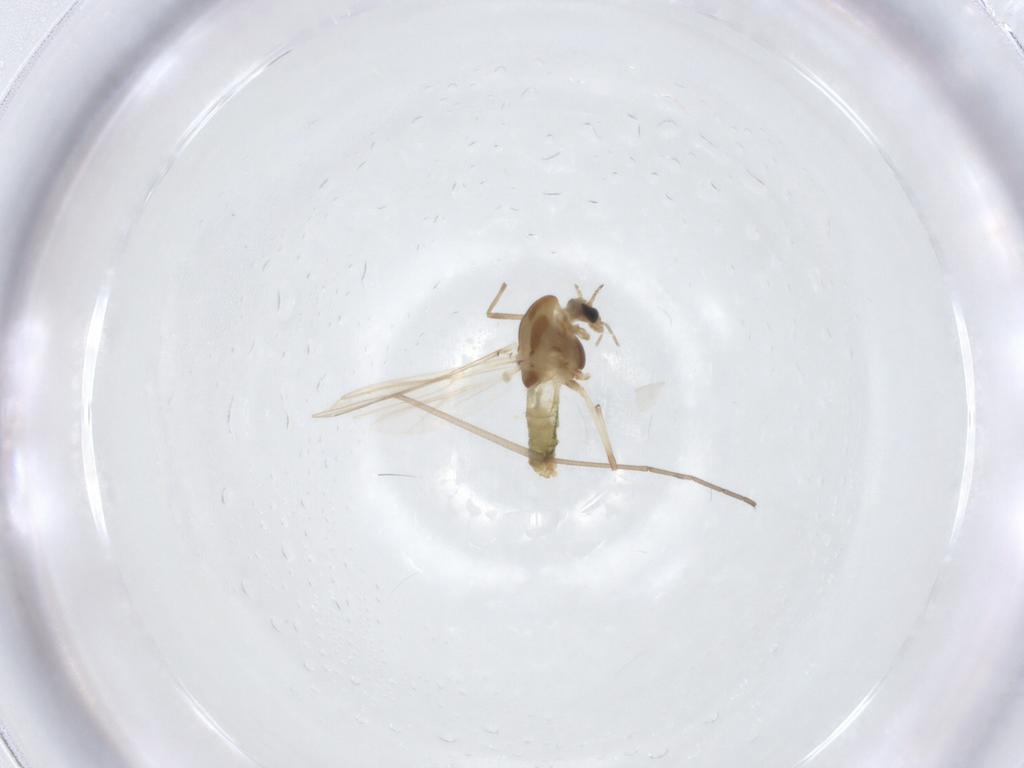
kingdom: Animalia
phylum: Arthropoda
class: Insecta
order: Diptera
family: Chironomidae
